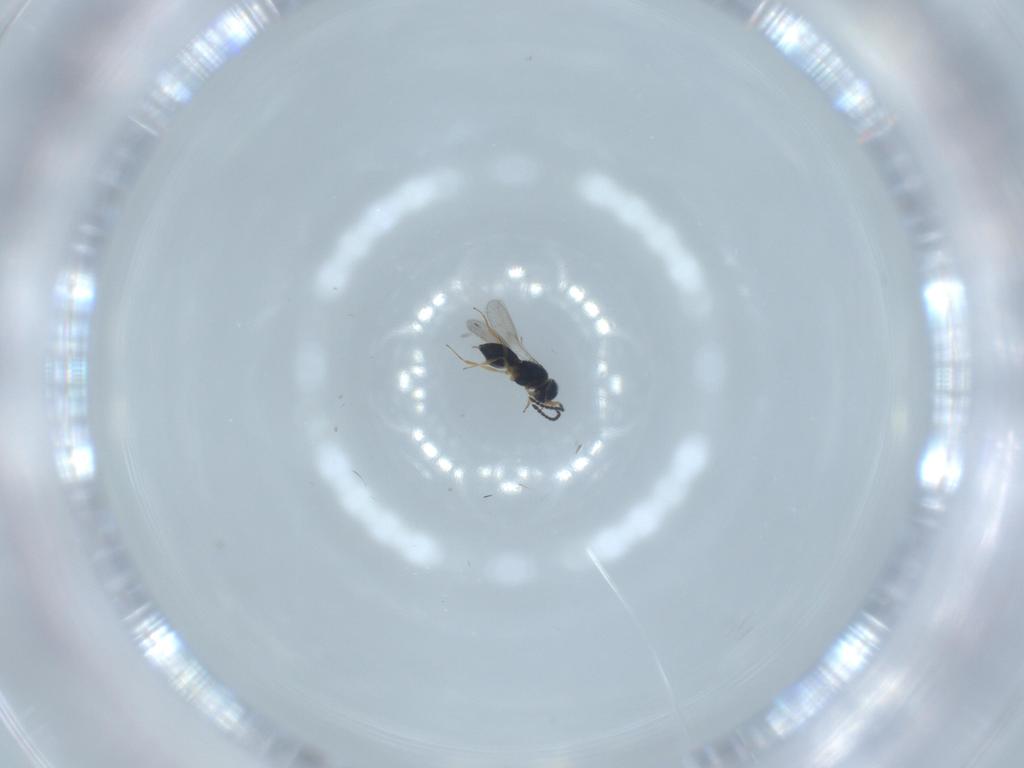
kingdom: Animalia
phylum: Arthropoda
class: Insecta
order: Hymenoptera
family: Scelionidae
